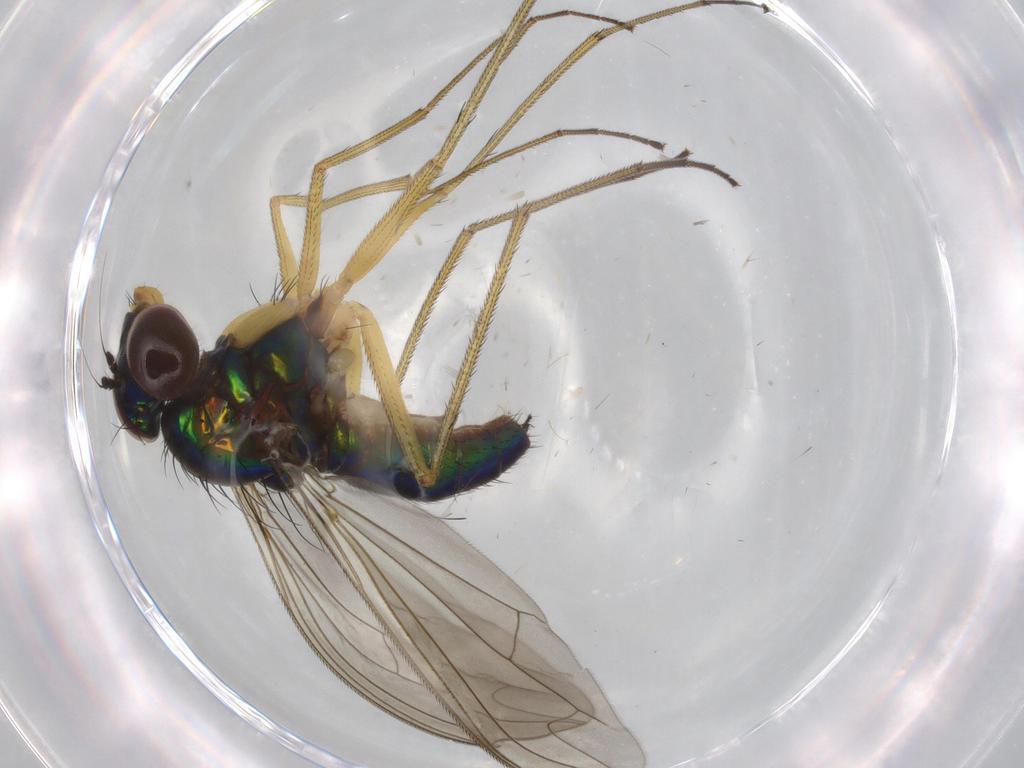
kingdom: Animalia
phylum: Arthropoda
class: Insecta
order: Diptera
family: Dolichopodidae
